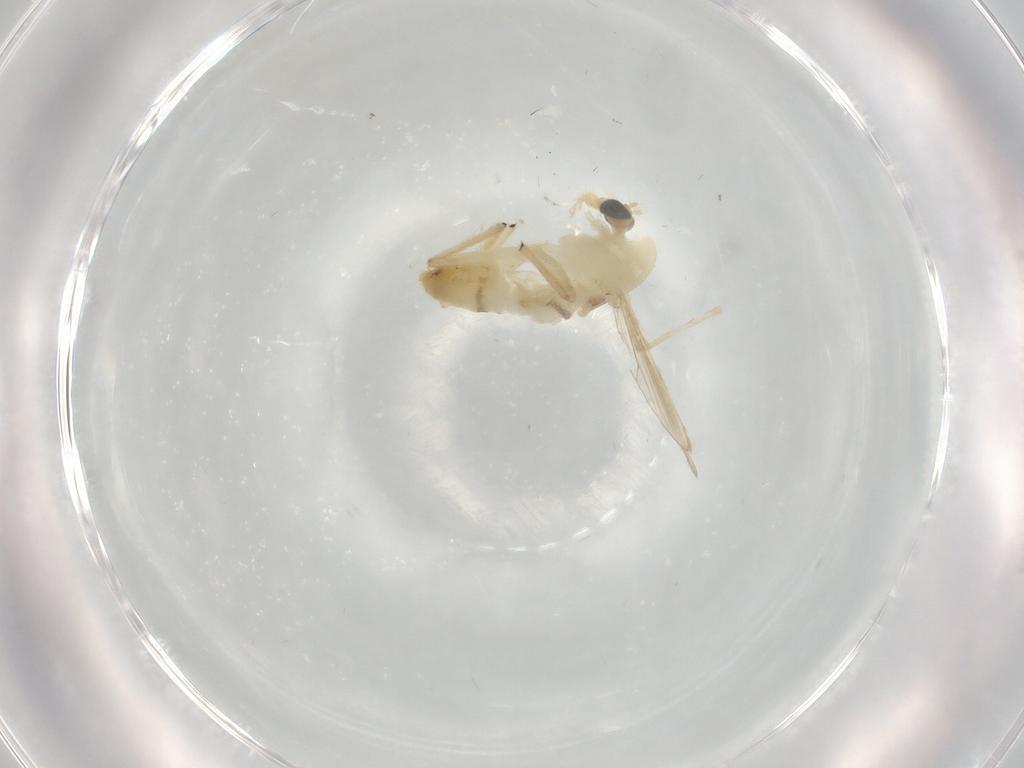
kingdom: Animalia
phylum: Arthropoda
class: Insecta
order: Diptera
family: Chironomidae
